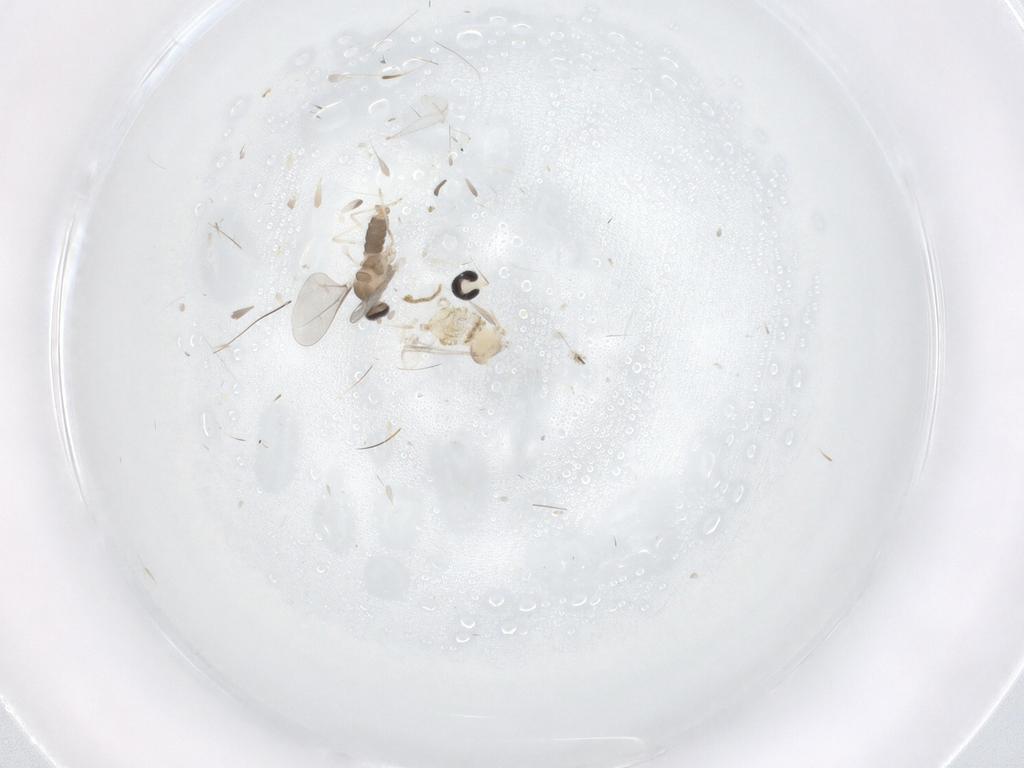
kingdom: Animalia
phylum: Arthropoda
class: Insecta
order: Diptera
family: Cecidomyiidae
